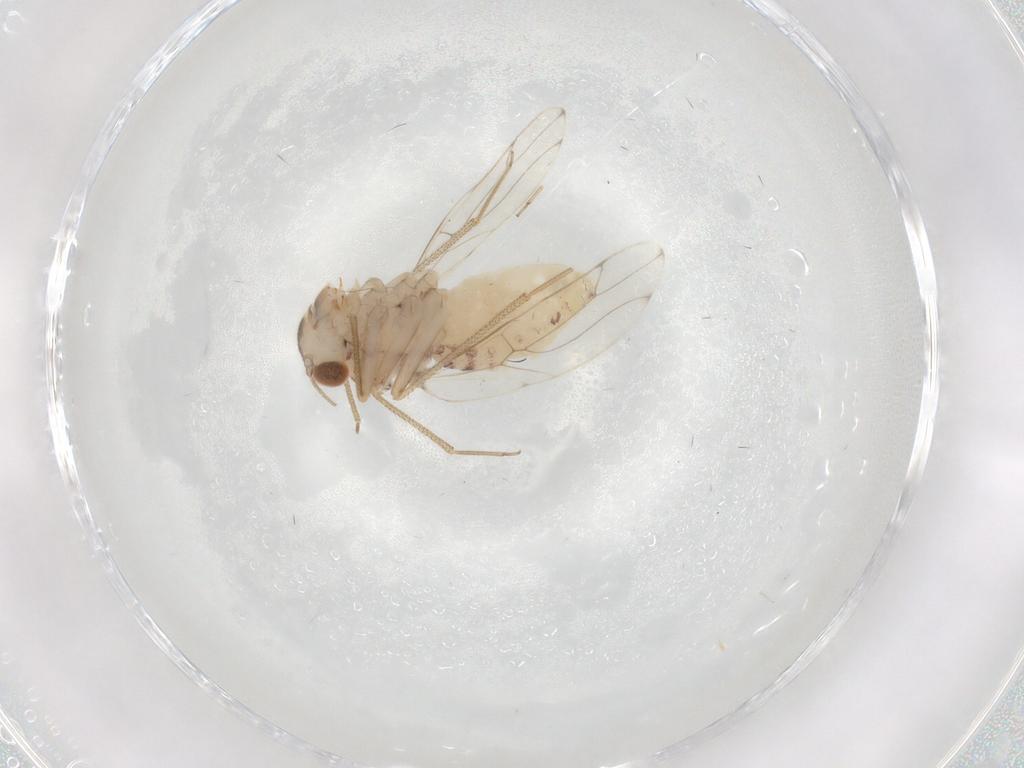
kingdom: Animalia
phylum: Arthropoda
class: Insecta
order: Psocodea
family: Epipsocidae
